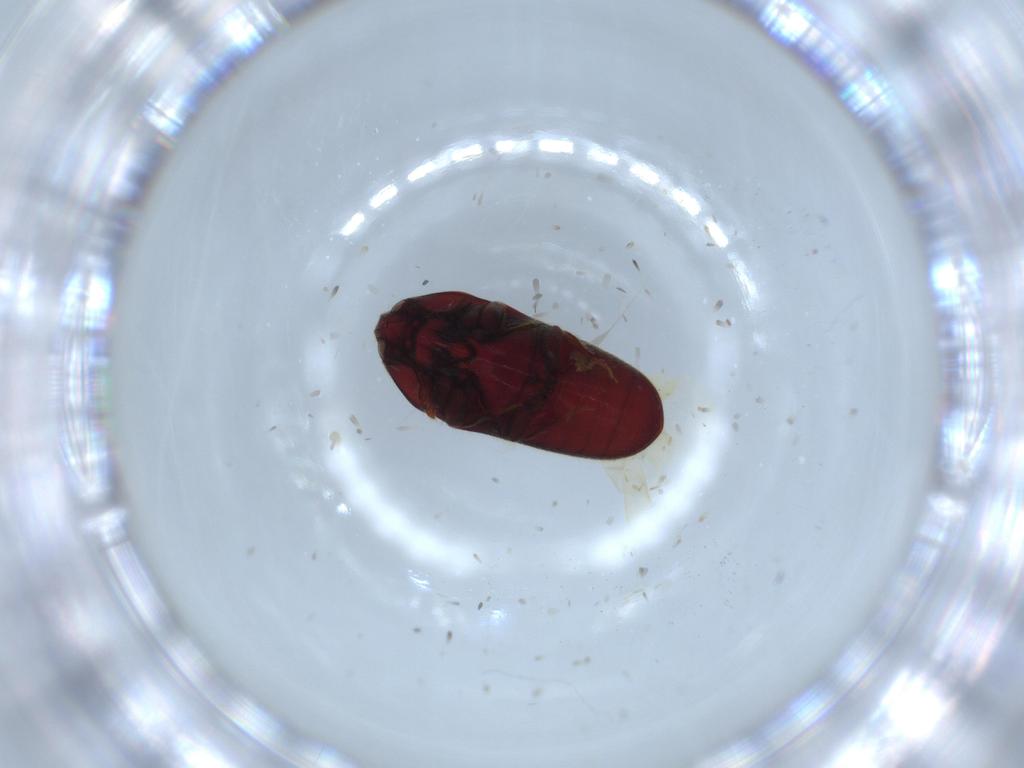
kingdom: Animalia
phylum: Arthropoda
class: Insecta
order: Coleoptera
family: Throscidae
